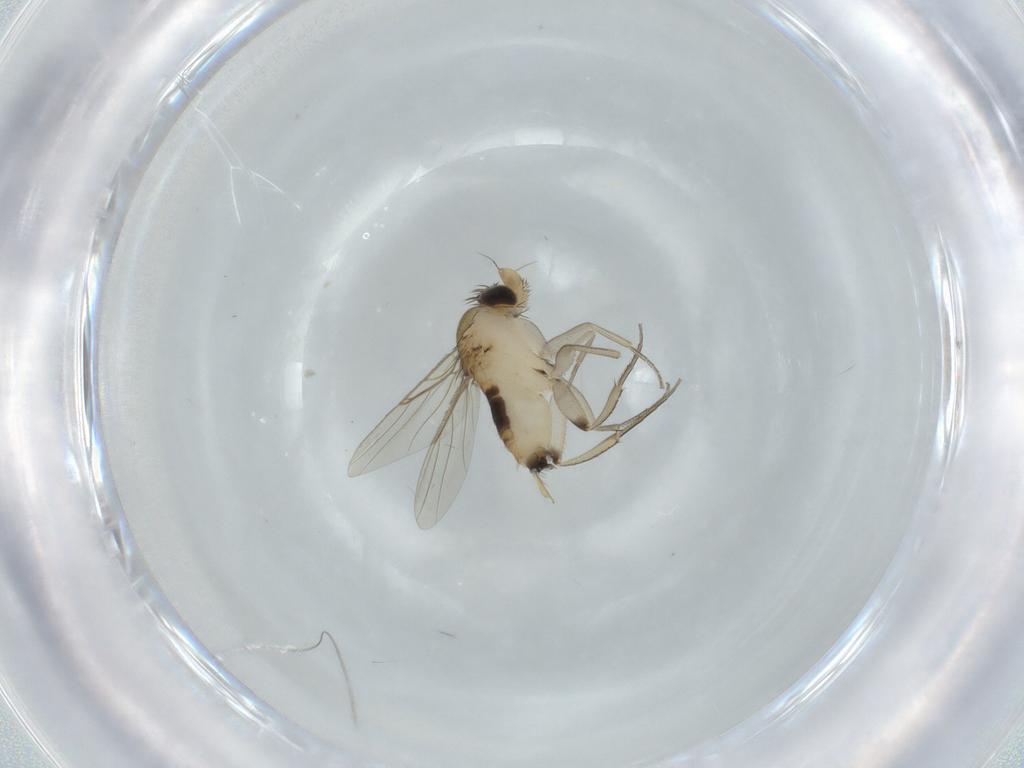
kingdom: Animalia
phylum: Arthropoda
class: Insecta
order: Diptera
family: Phoridae
